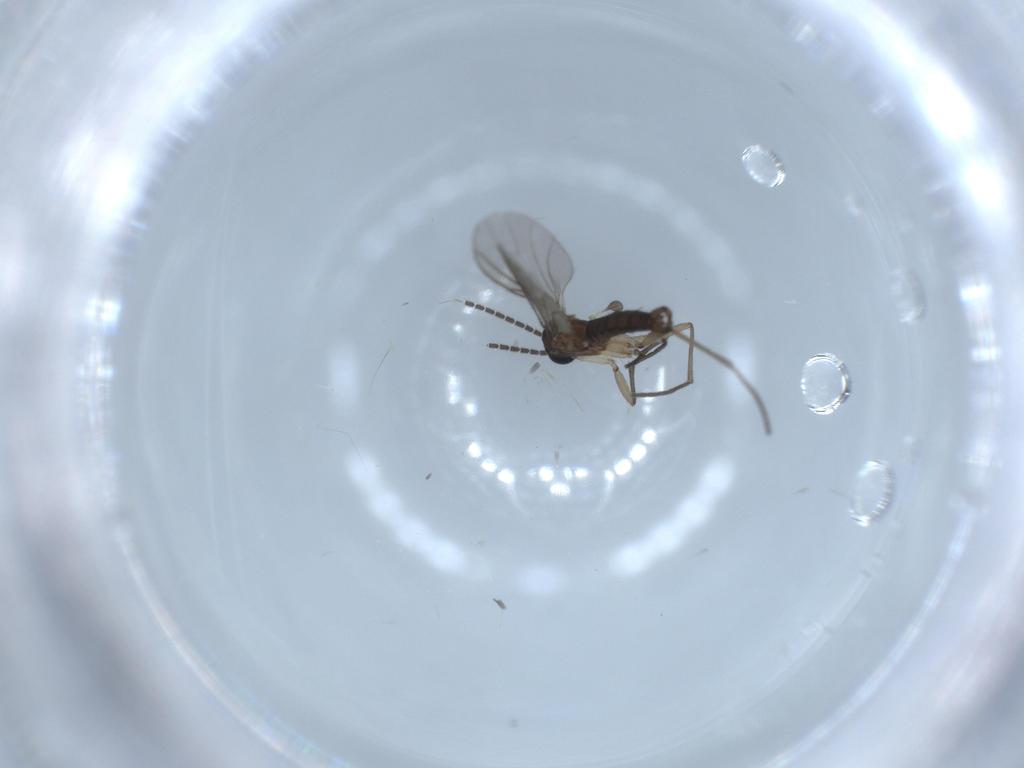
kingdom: Animalia
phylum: Arthropoda
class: Insecta
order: Diptera
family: Sciaridae
